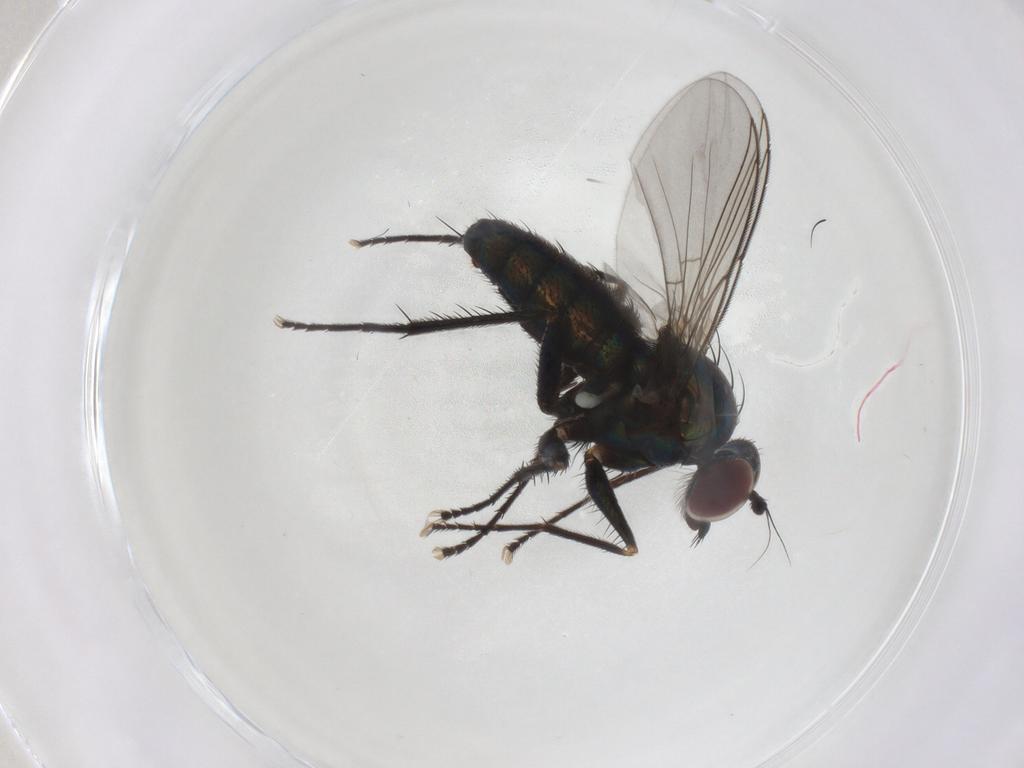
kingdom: Animalia
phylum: Arthropoda
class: Insecta
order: Diptera
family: Dolichopodidae
